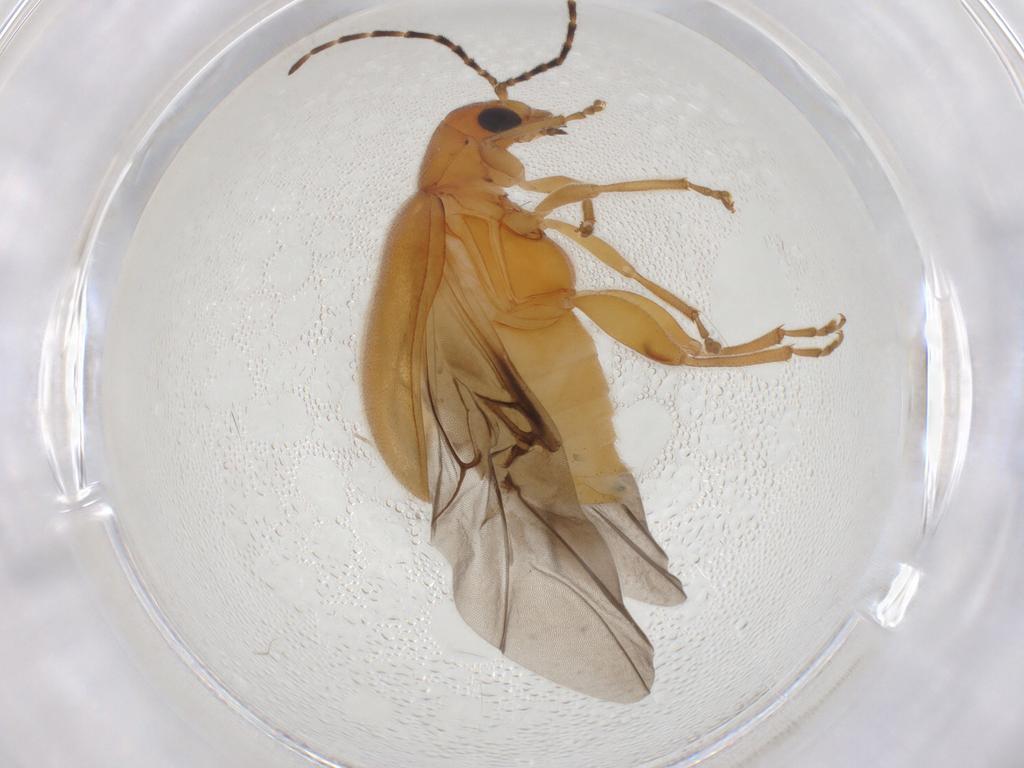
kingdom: Animalia
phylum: Arthropoda
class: Insecta
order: Coleoptera
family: Chrysomelidae
